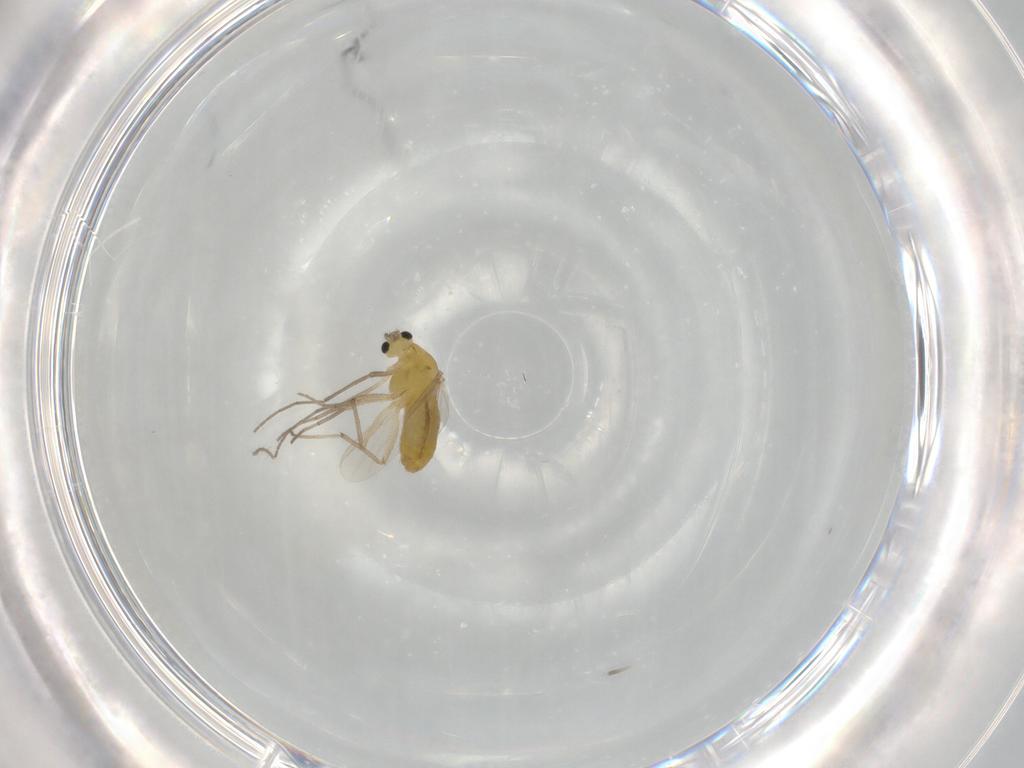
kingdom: Animalia
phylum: Arthropoda
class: Insecta
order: Diptera
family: Chironomidae
